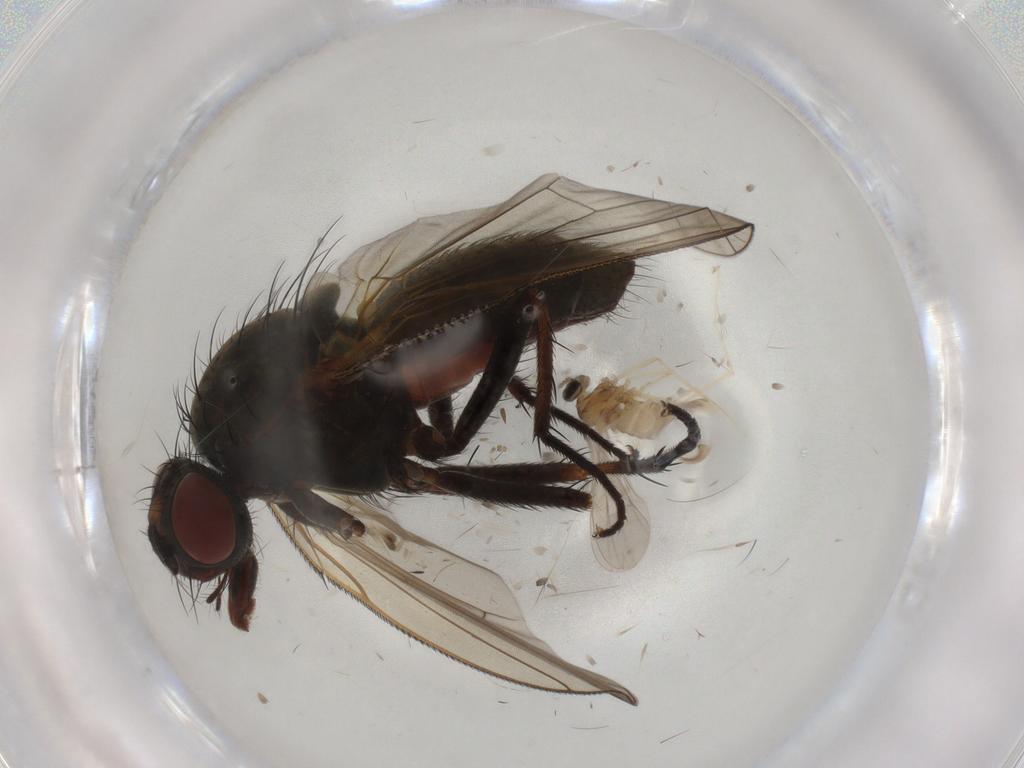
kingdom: Animalia
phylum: Arthropoda
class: Insecta
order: Diptera
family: Anthomyiidae
